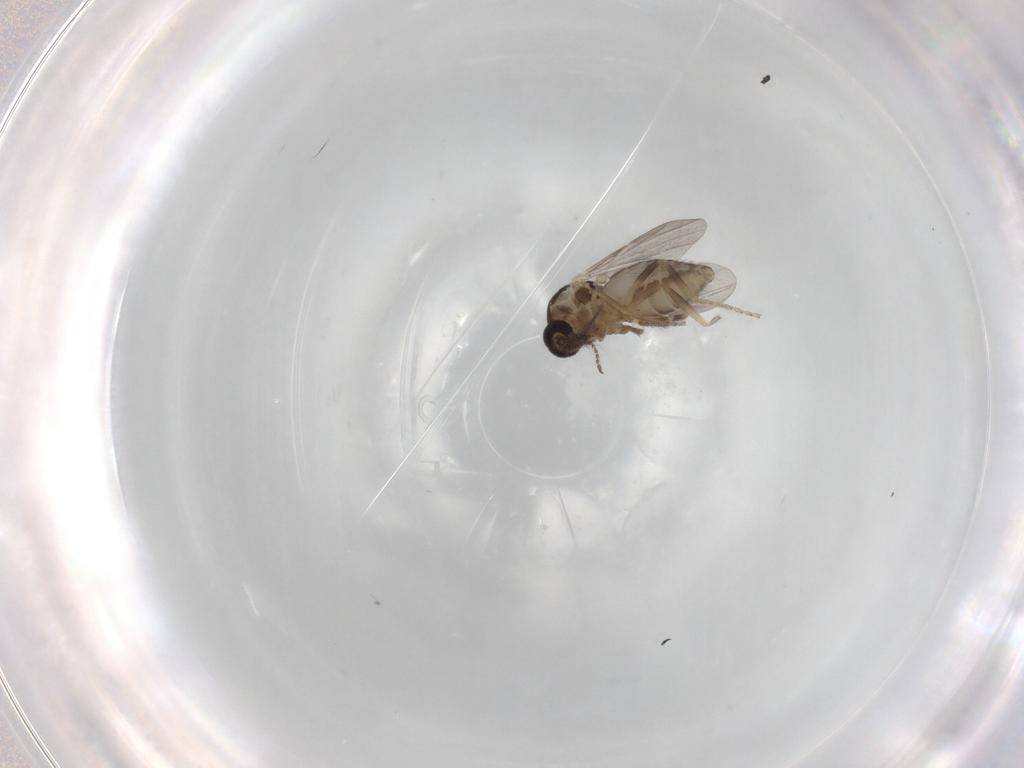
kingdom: Animalia
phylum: Arthropoda
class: Insecta
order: Diptera
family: Ceratopogonidae
